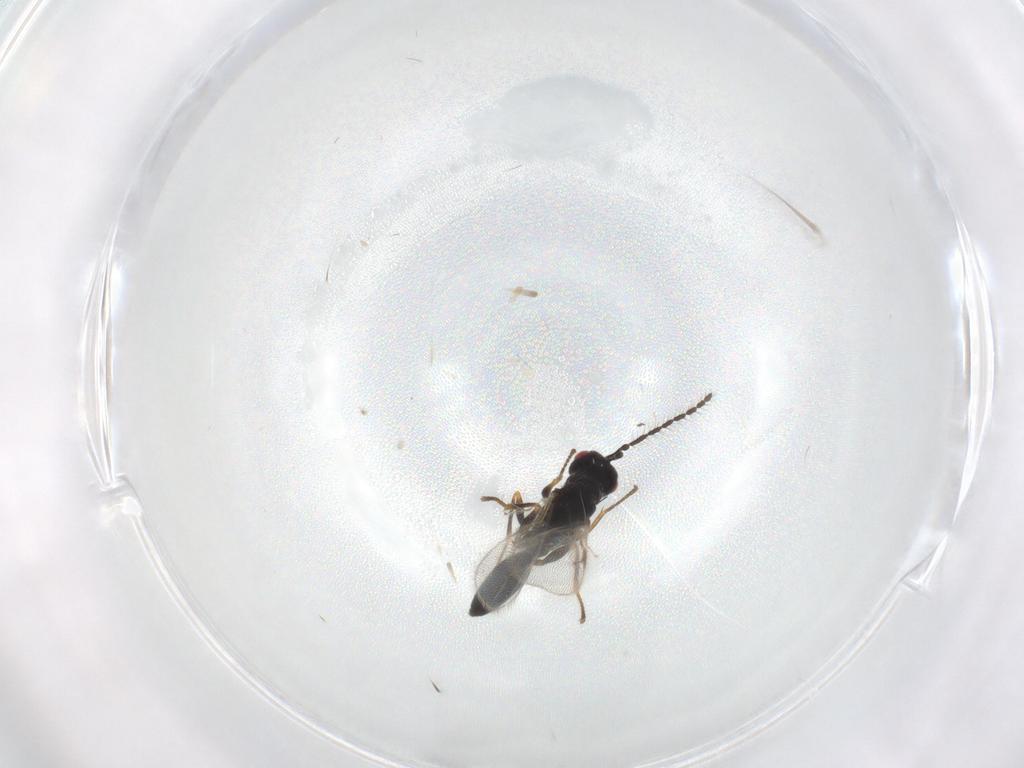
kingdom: Animalia
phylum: Arthropoda
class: Insecta
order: Hymenoptera
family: Eurytomidae
